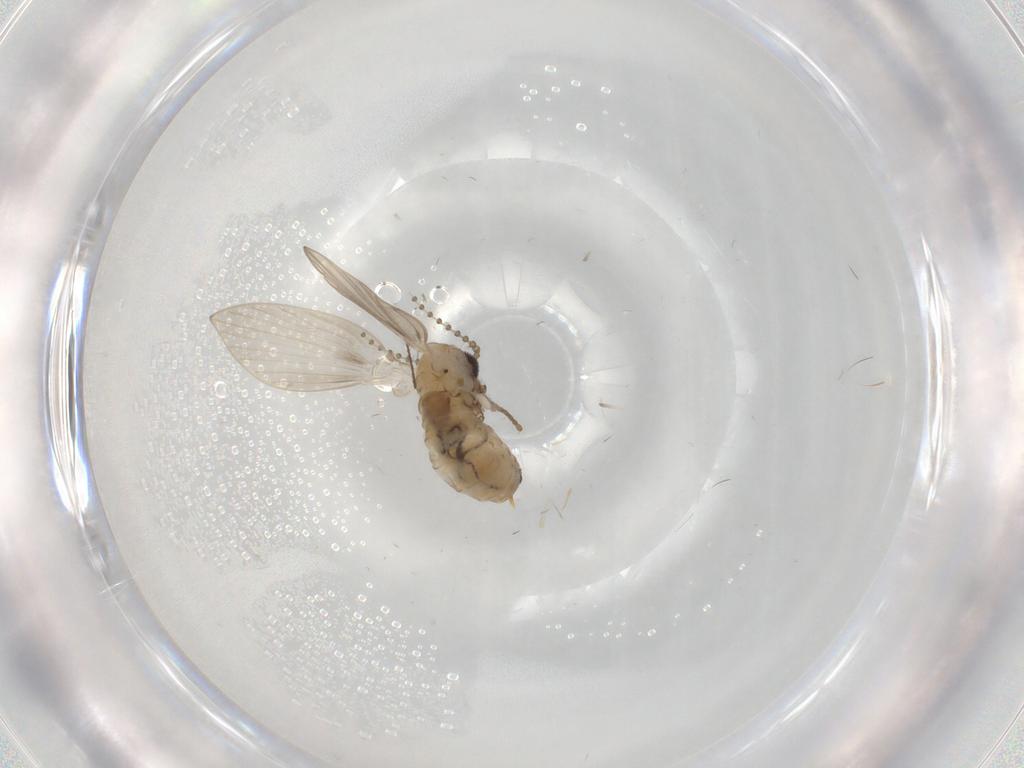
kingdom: Animalia
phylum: Arthropoda
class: Insecta
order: Diptera
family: Psychodidae
